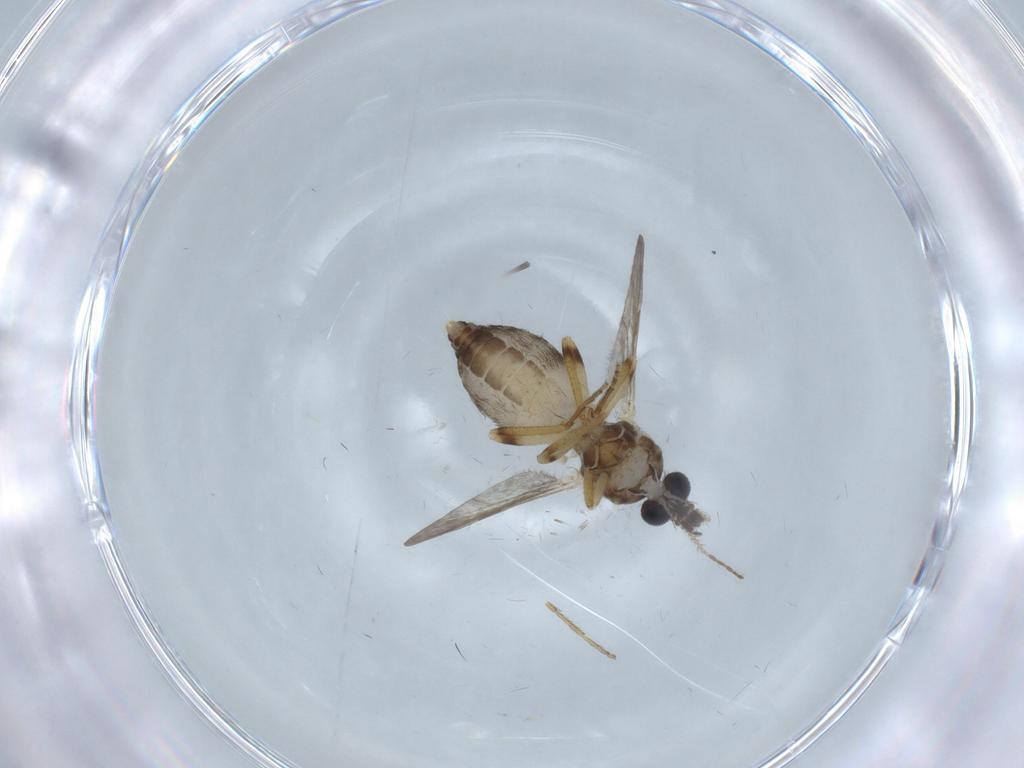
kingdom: Animalia
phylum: Arthropoda
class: Insecta
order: Diptera
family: Ceratopogonidae
